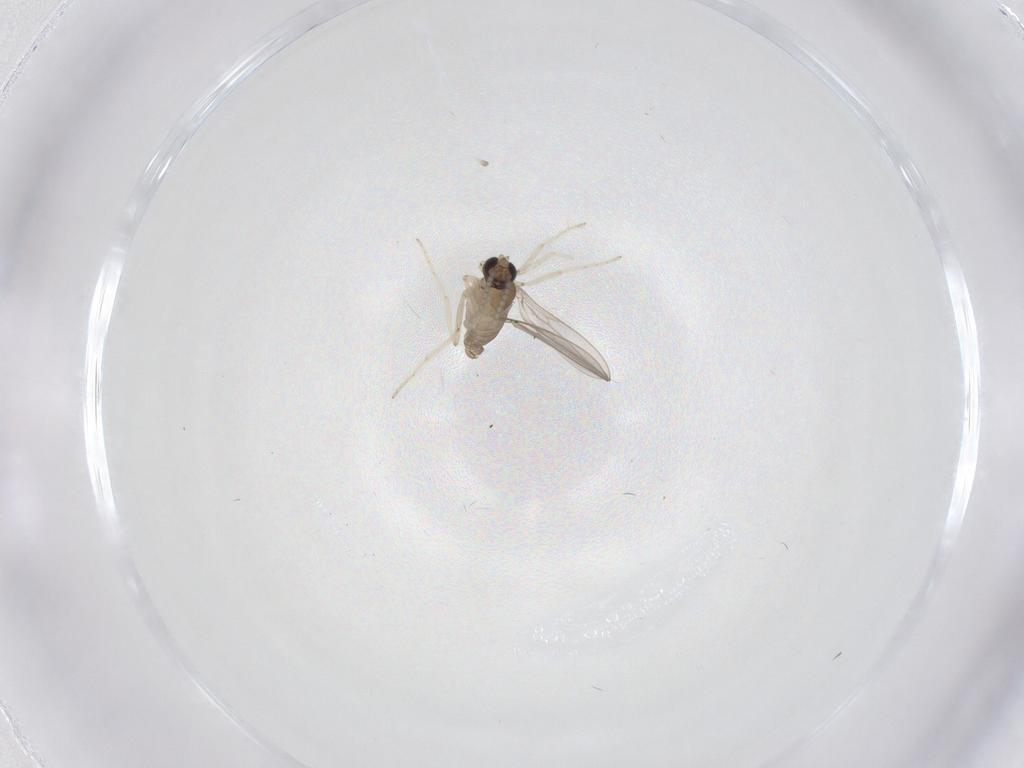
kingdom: Animalia
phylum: Arthropoda
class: Insecta
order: Diptera
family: Cecidomyiidae
